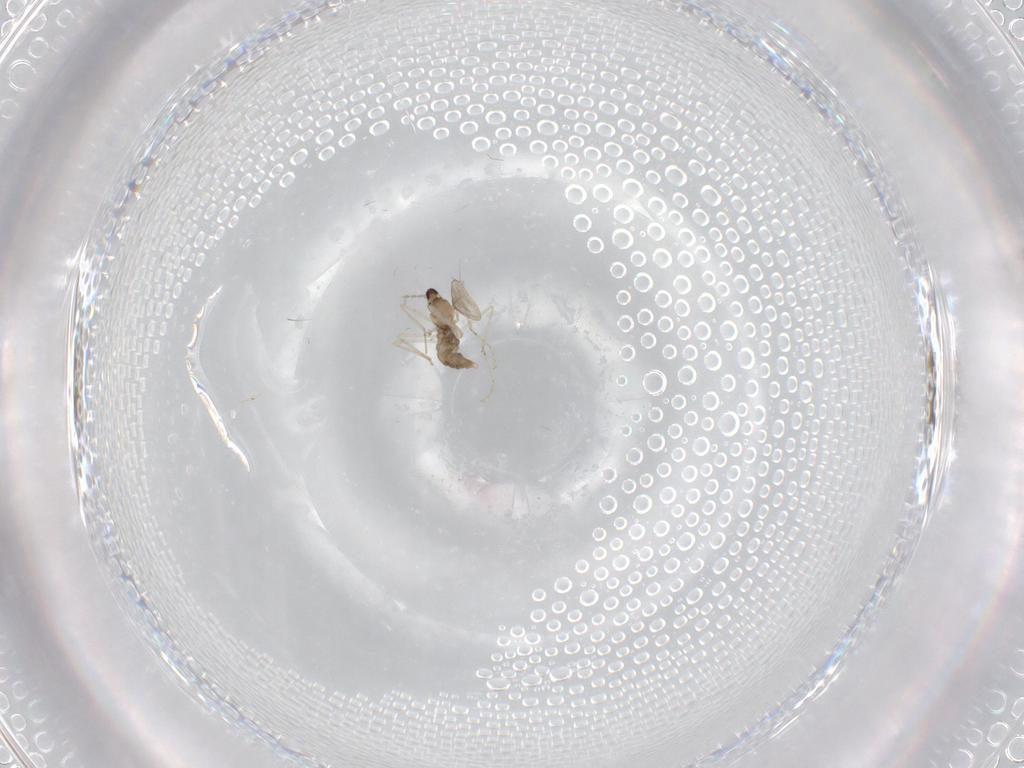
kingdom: Animalia
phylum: Arthropoda
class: Insecta
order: Diptera
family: Cecidomyiidae
